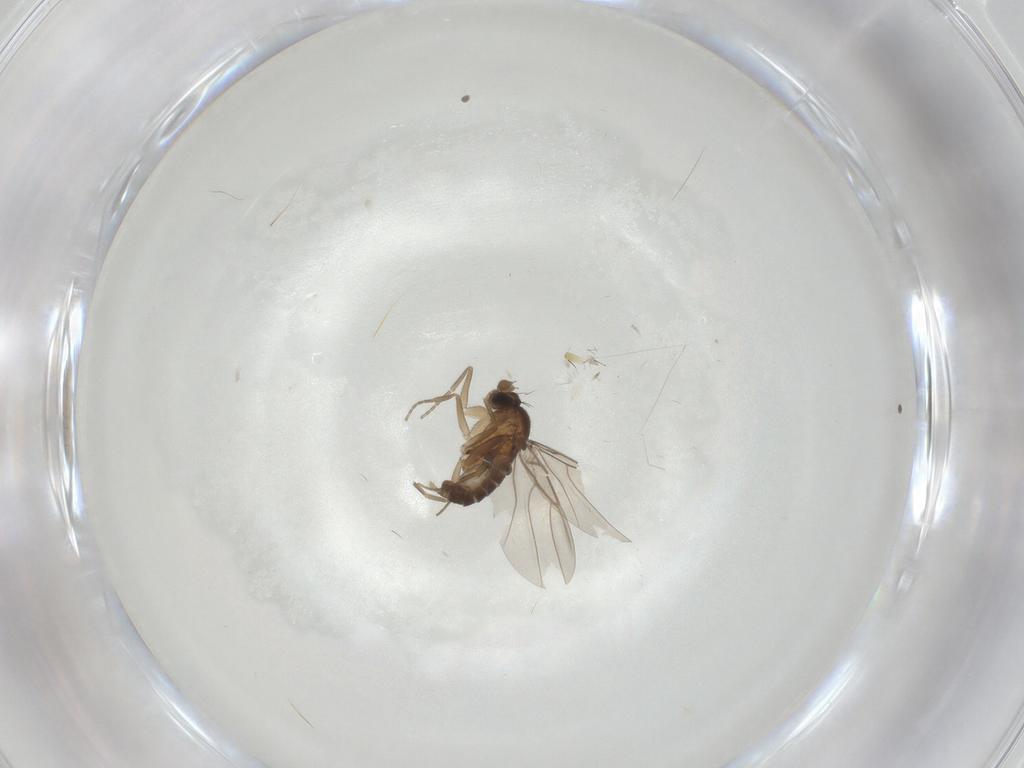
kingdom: Animalia
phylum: Arthropoda
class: Insecta
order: Diptera
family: Phoridae
